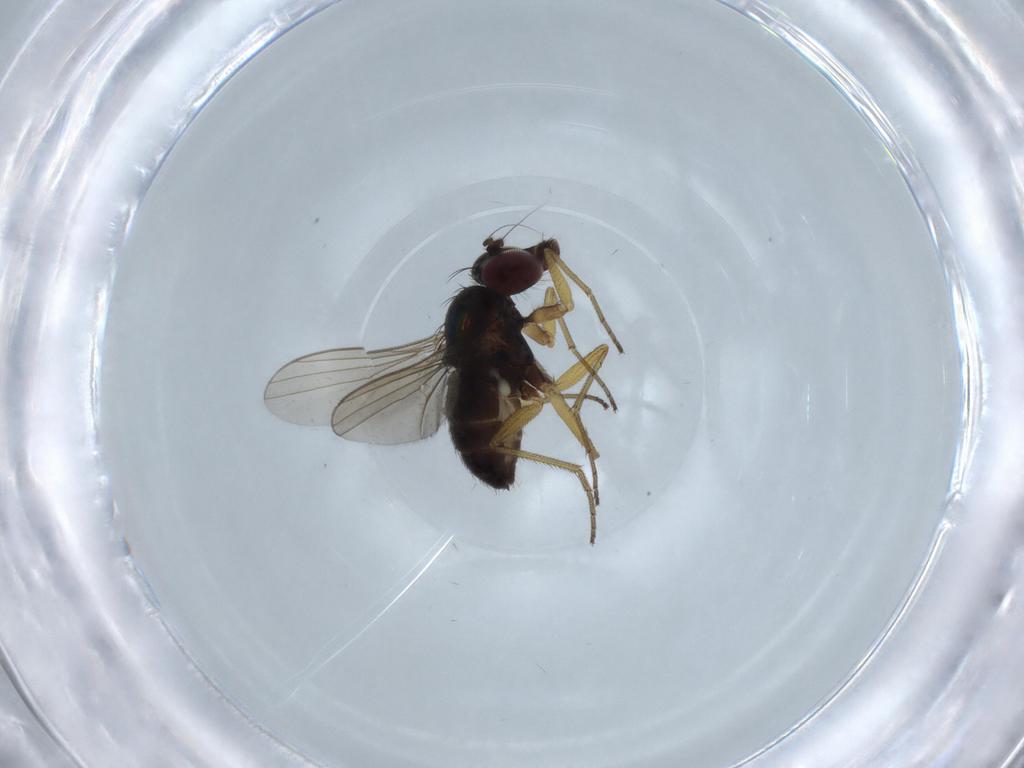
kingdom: Animalia
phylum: Arthropoda
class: Insecta
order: Diptera
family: Dolichopodidae
